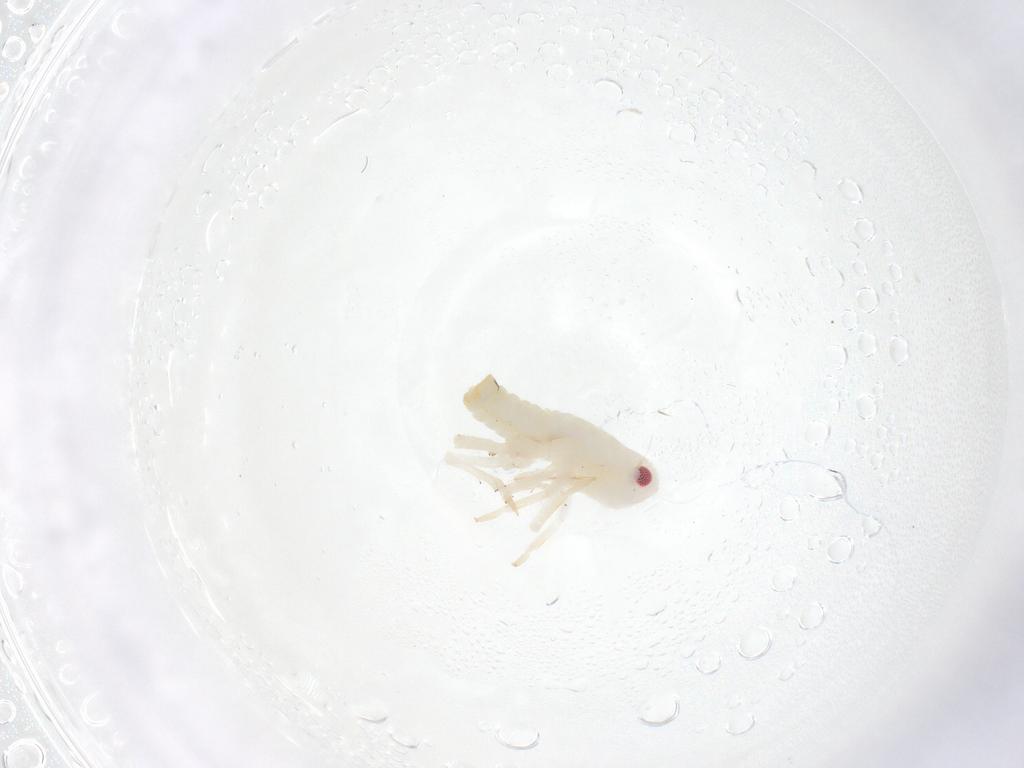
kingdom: Animalia
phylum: Arthropoda
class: Insecta
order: Hemiptera
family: Flatidae
